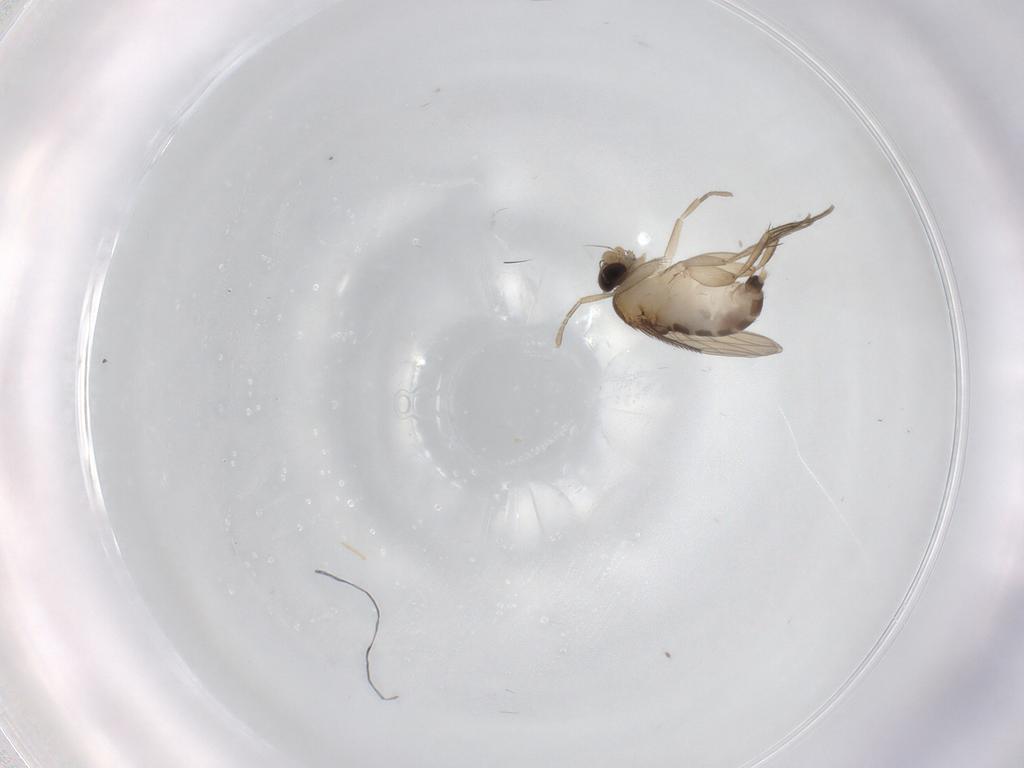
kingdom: Animalia
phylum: Arthropoda
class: Insecta
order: Diptera
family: Phoridae
